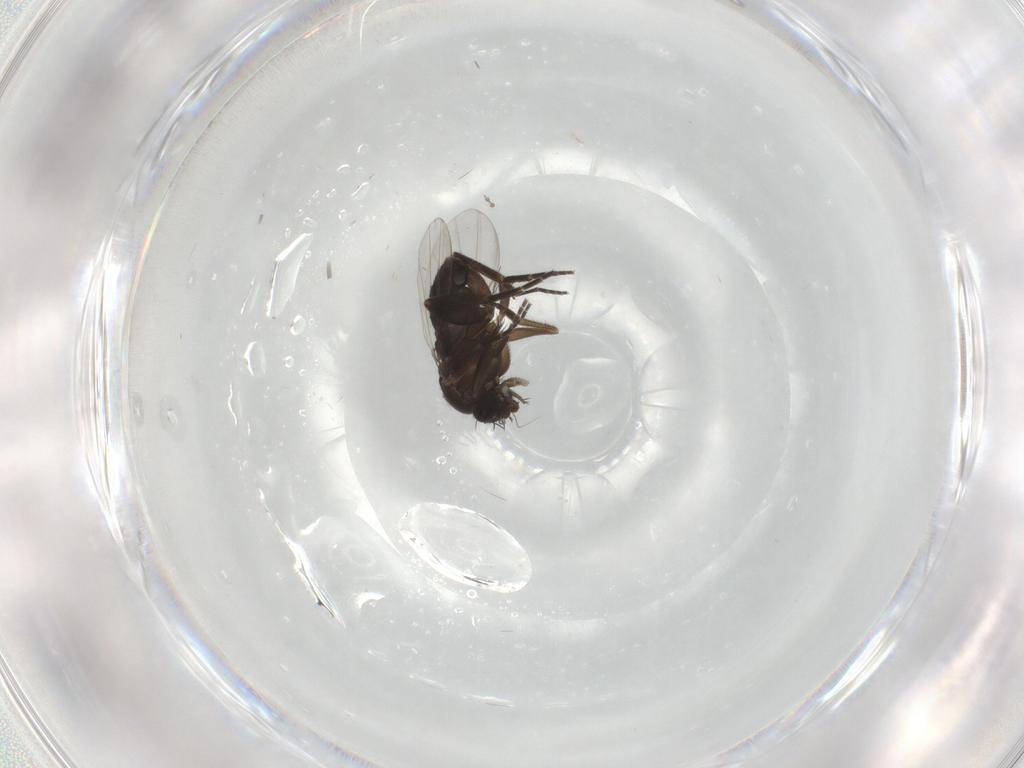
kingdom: Animalia
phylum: Arthropoda
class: Insecta
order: Diptera
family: Phoridae
